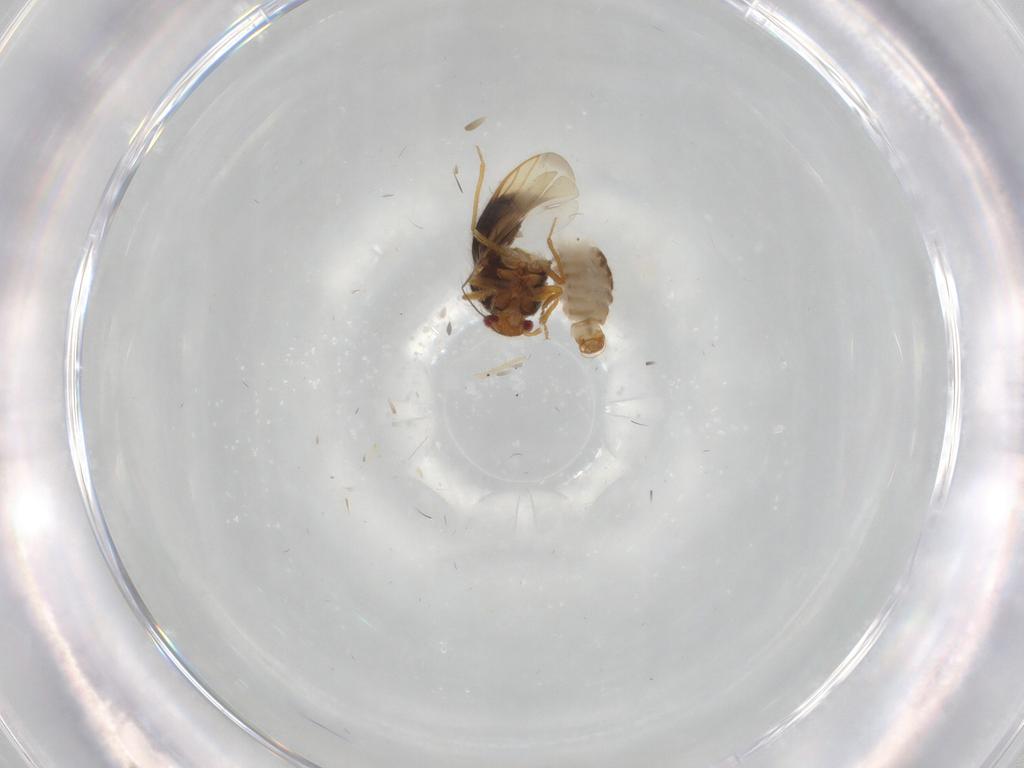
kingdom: Animalia
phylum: Arthropoda
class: Insecta
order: Hemiptera
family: Schizopteridae
